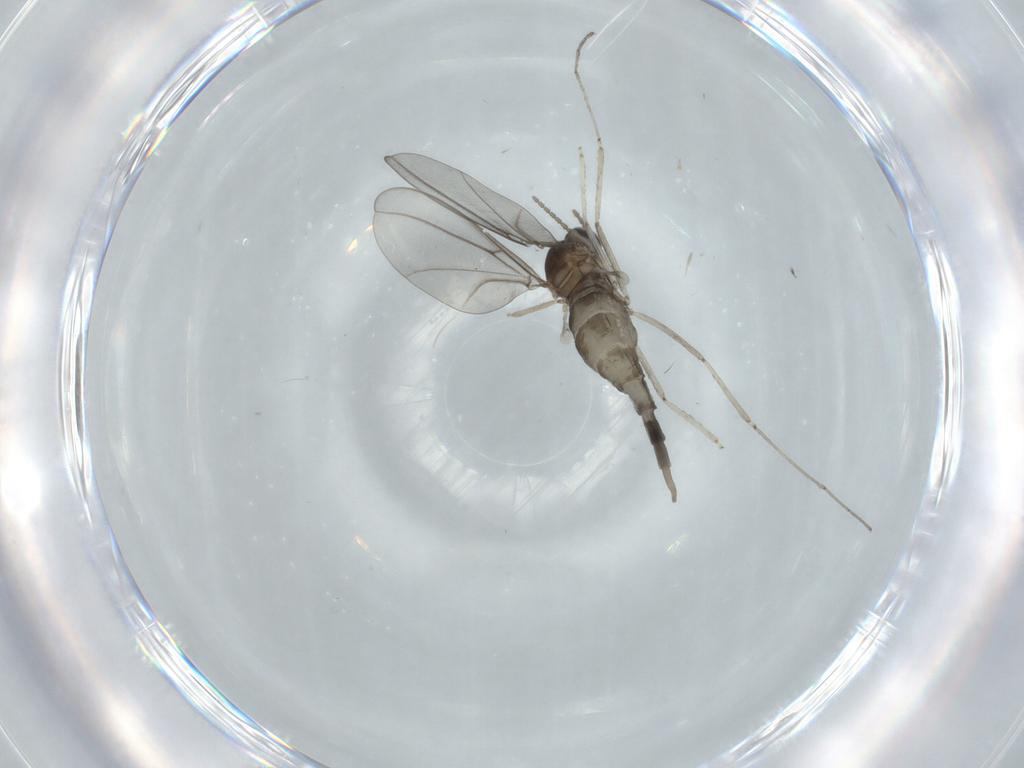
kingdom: Animalia
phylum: Arthropoda
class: Insecta
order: Diptera
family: Cecidomyiidae
